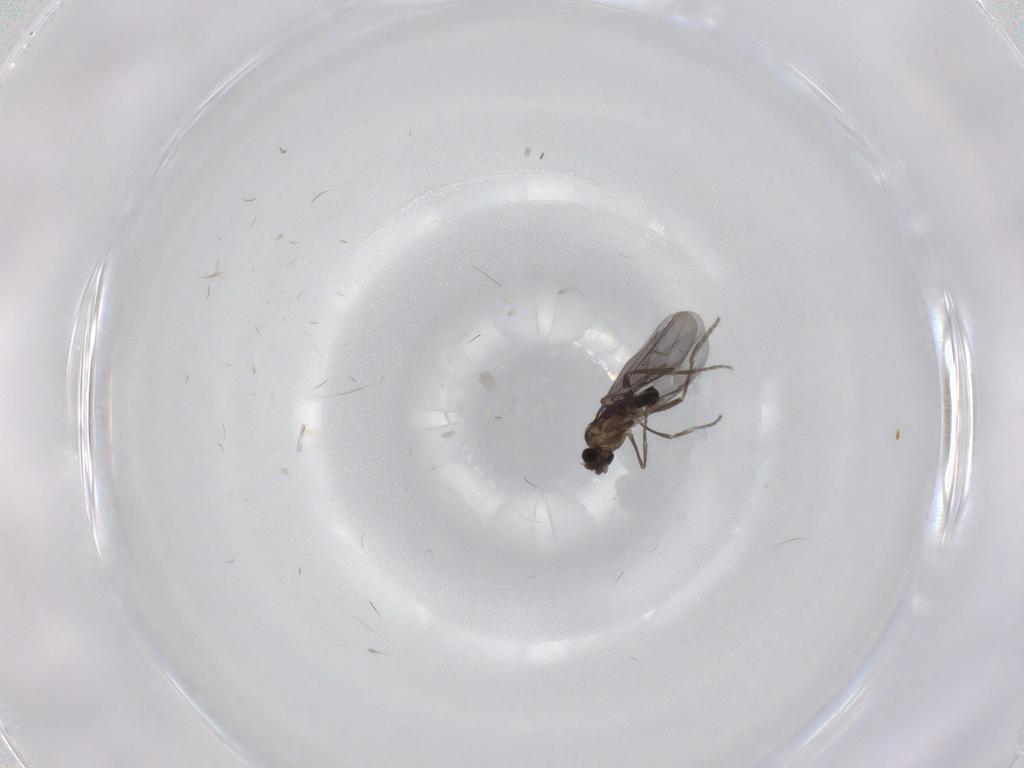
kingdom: Animalia
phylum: Arthropoda
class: Insecta
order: Diptera
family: Phoridae
